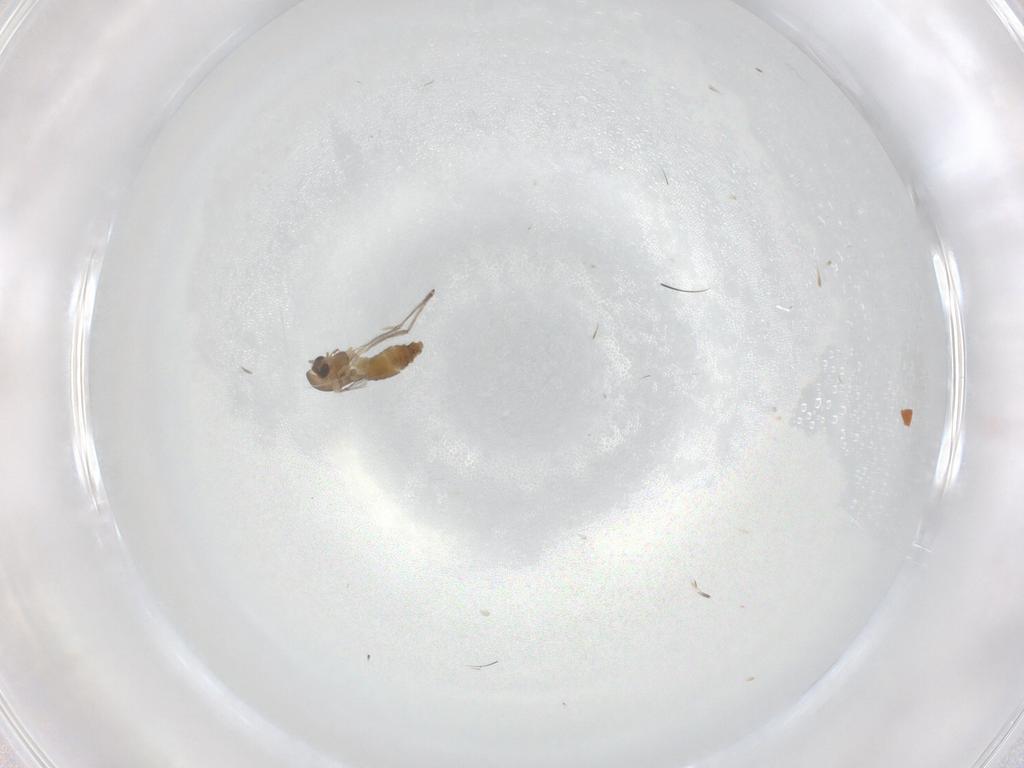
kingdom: Animalia
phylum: Arthropoda
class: Insecta
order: Diptera
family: Chironomidae
